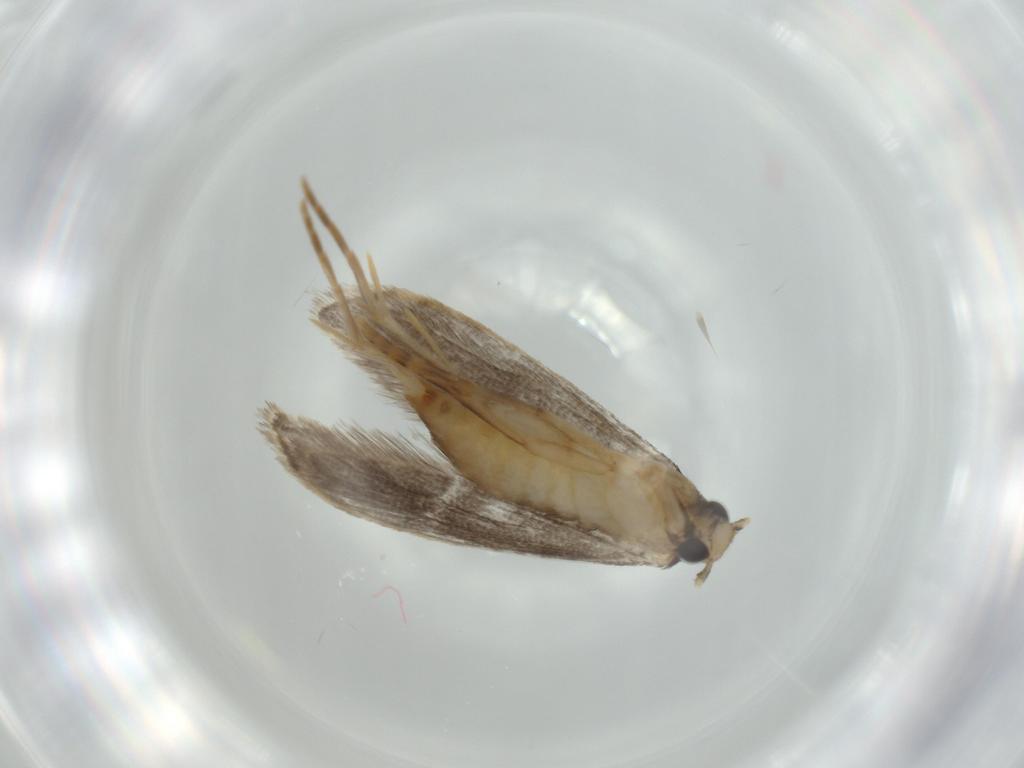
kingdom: Animalia
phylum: Arthropoda
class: Insecta
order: Lepidoptera
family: Tineidae
